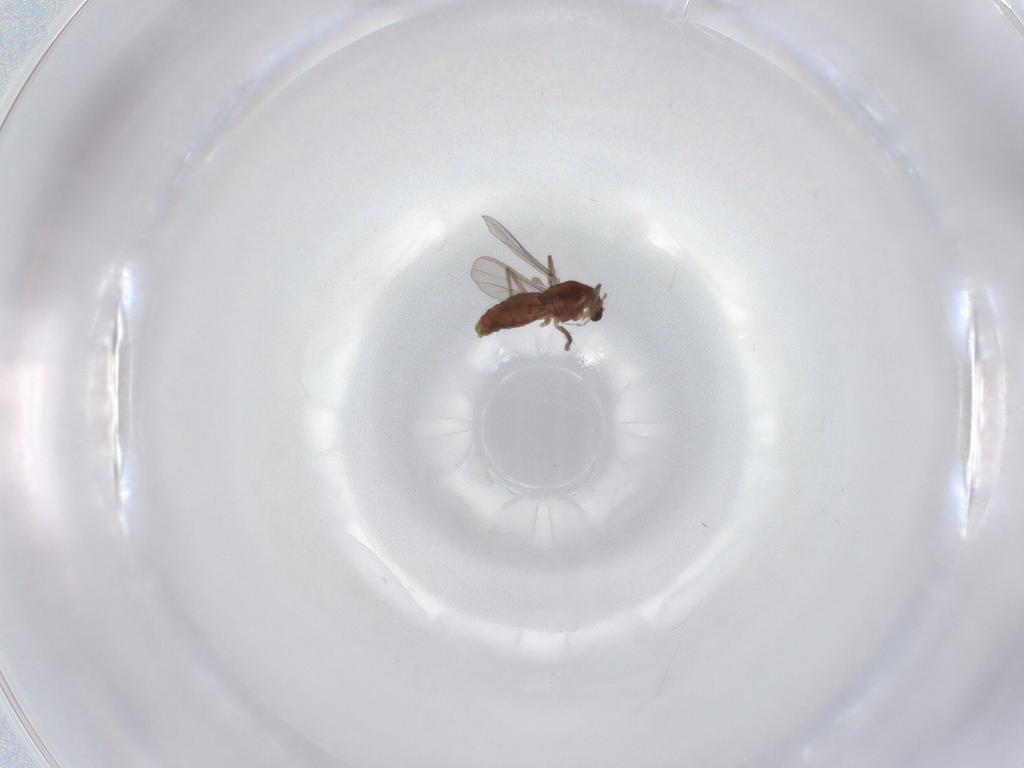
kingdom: Animalia
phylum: Arthropoda
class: Insecta
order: Diptera
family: Chironomidae
